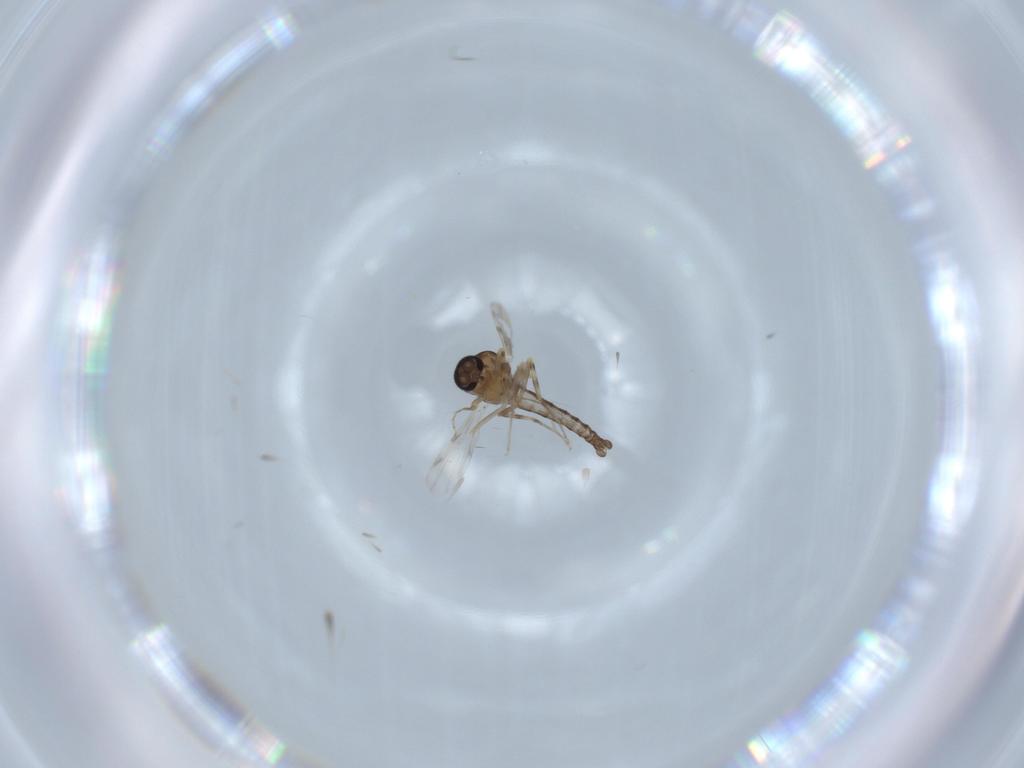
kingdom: Animalia
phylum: Arthropoda
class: Insecta
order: Diptera
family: Ceratopogonidae
